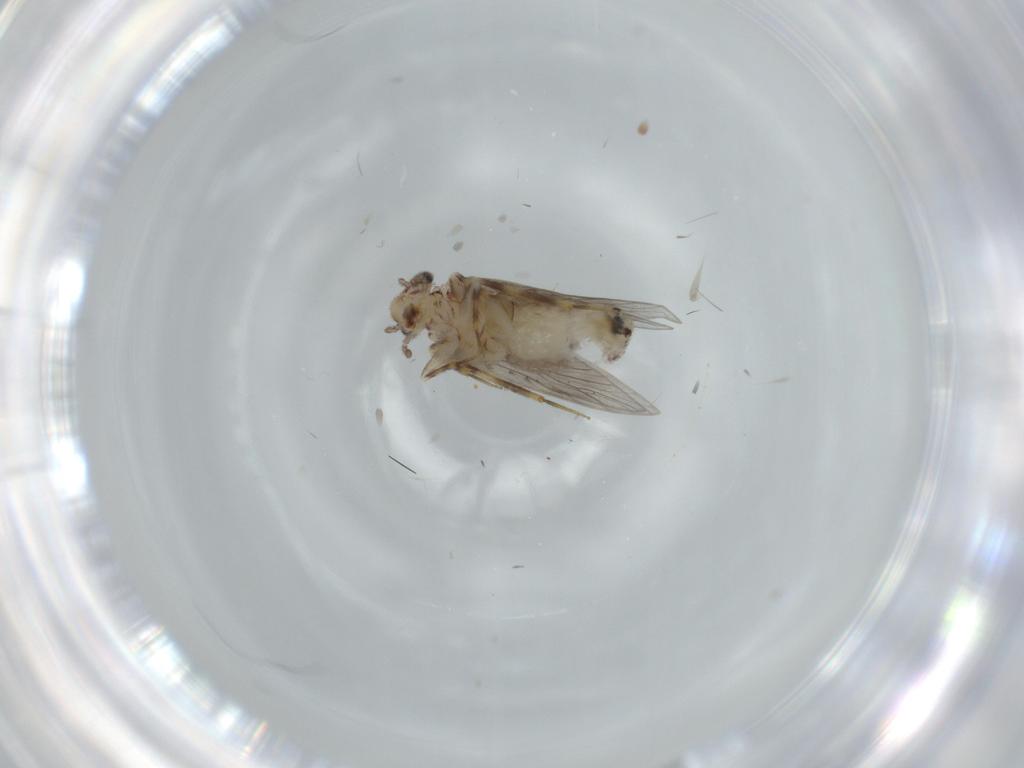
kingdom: Animalia
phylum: Arthropoda
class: Insecta
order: Psocodea
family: Lepidopsocidae
